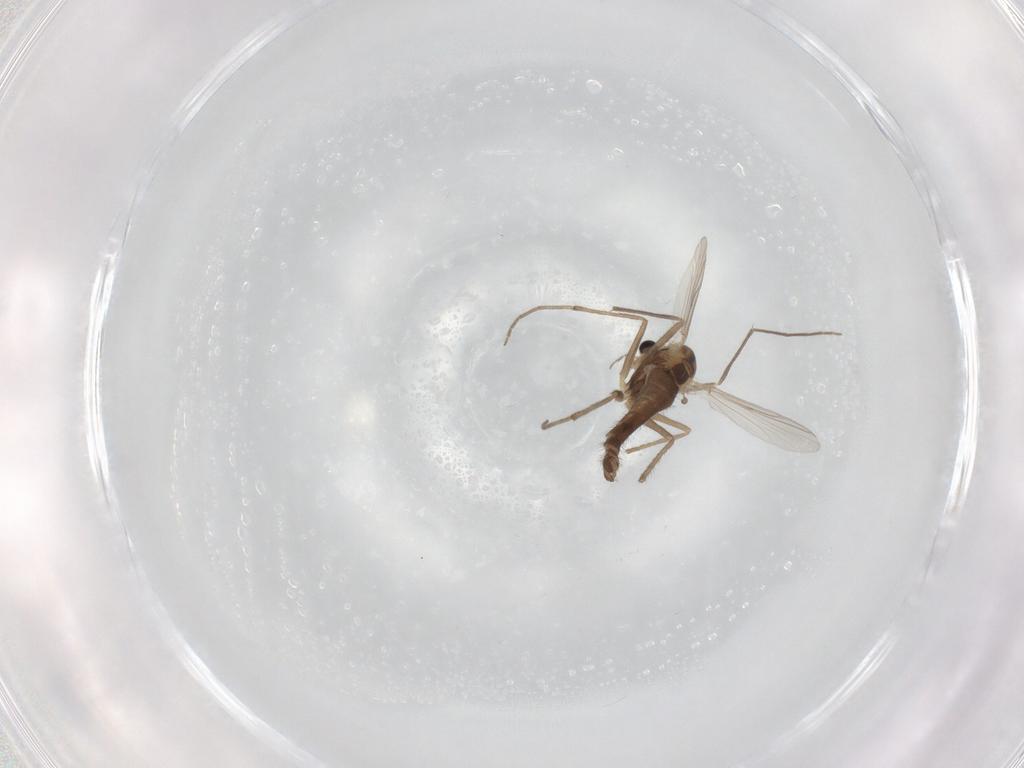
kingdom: Animalia
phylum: Arthropoda
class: Insecta
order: Diptera
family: Chironomidae
